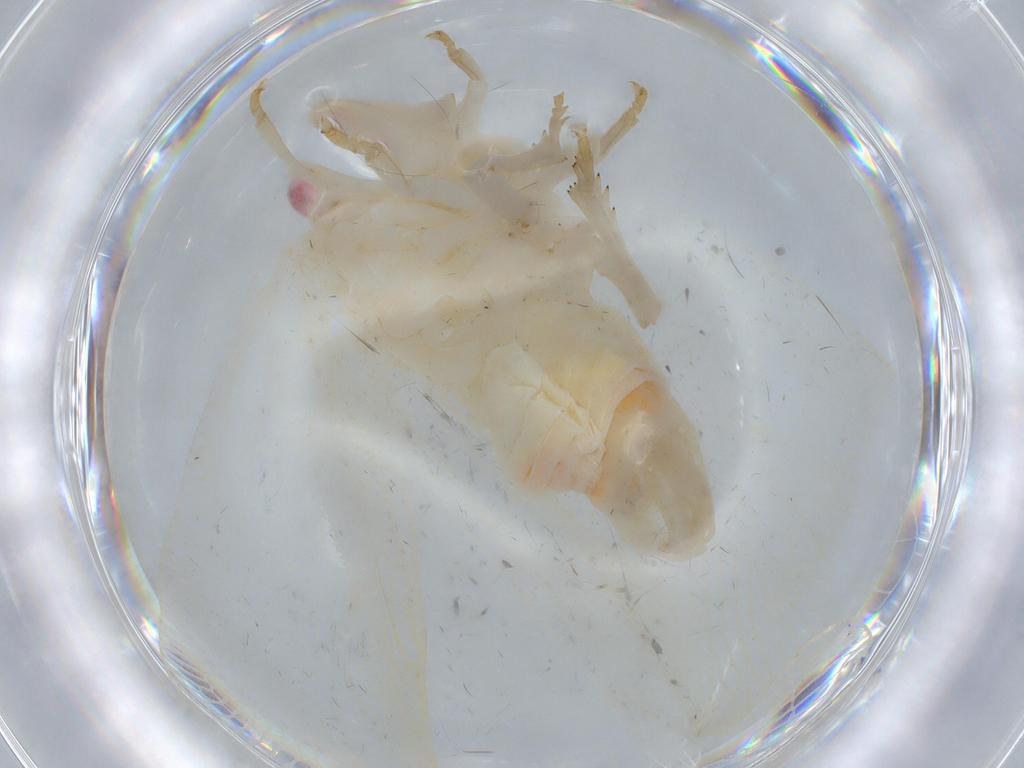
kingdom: Animalia
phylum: Arthropoda
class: Insecta
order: Hemiptera
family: Flatidae
